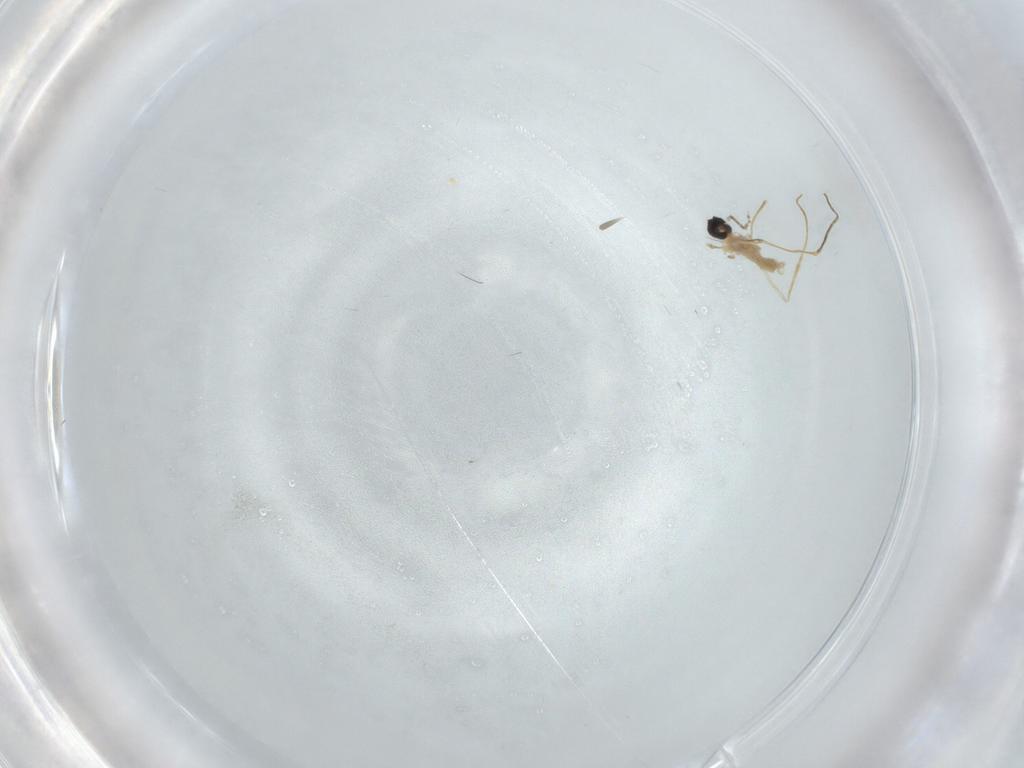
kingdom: Animalia
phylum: Arthropoda
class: Insecta
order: Diptera
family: Cecidomyiidae
